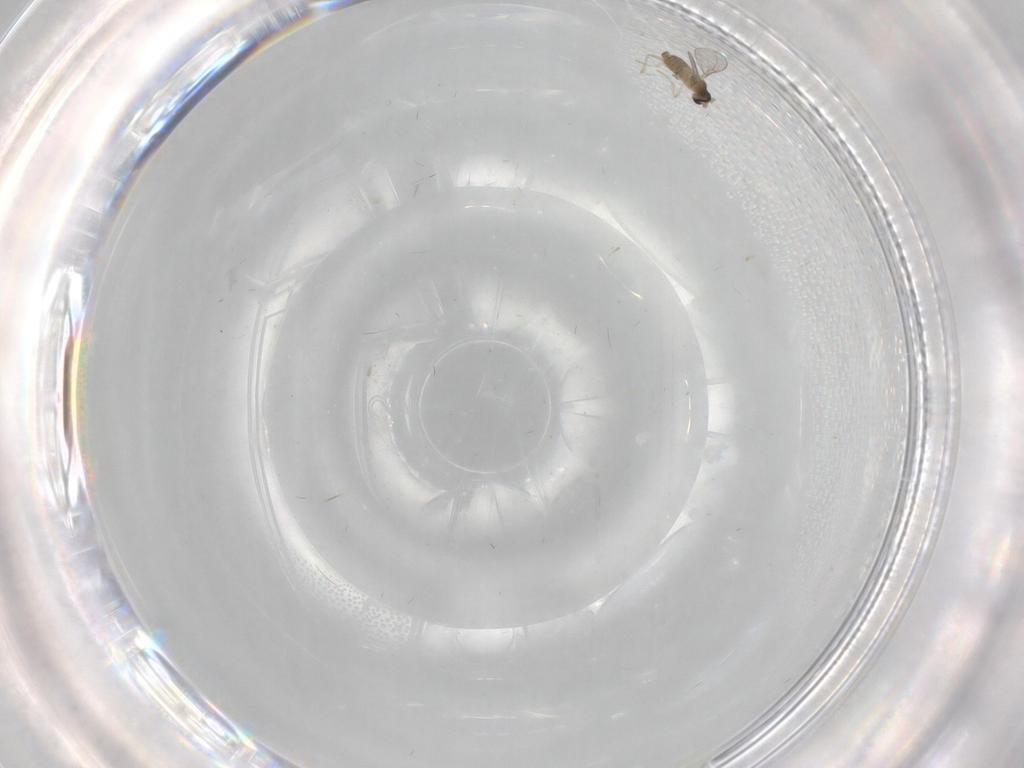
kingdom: Animalia
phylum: Arthropoda
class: Insecta
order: Diptera
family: Cecidomyiidae
